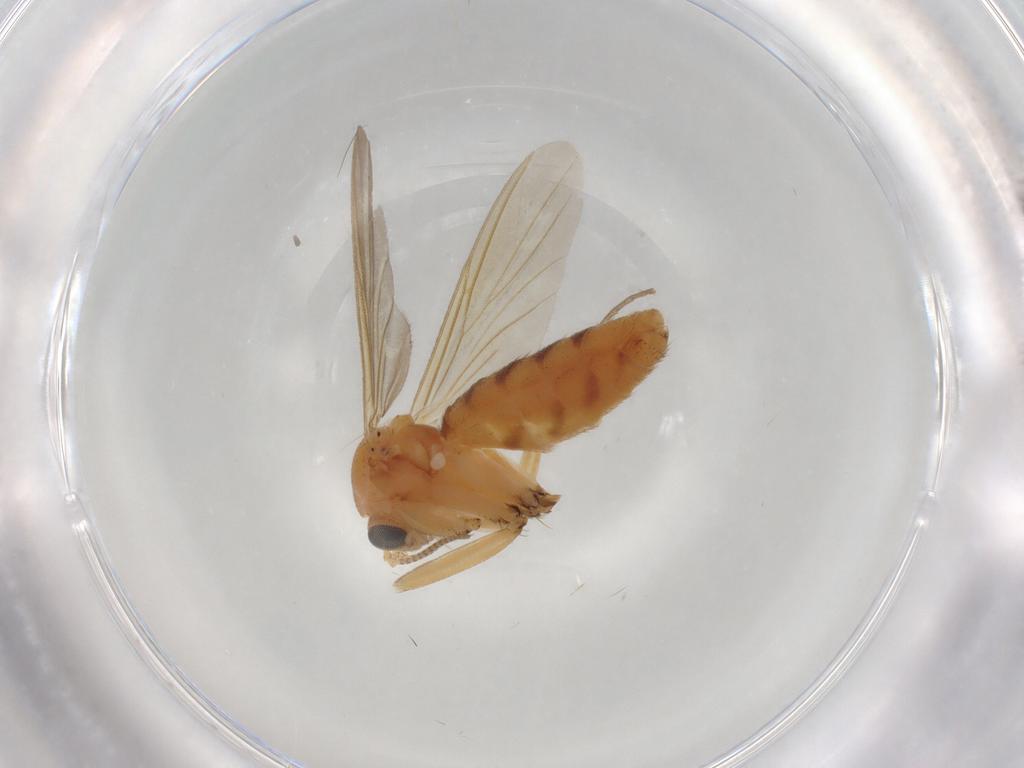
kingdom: Animalia
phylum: Arthropoda
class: Insecta
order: Diptera
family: Mycetophilidae
